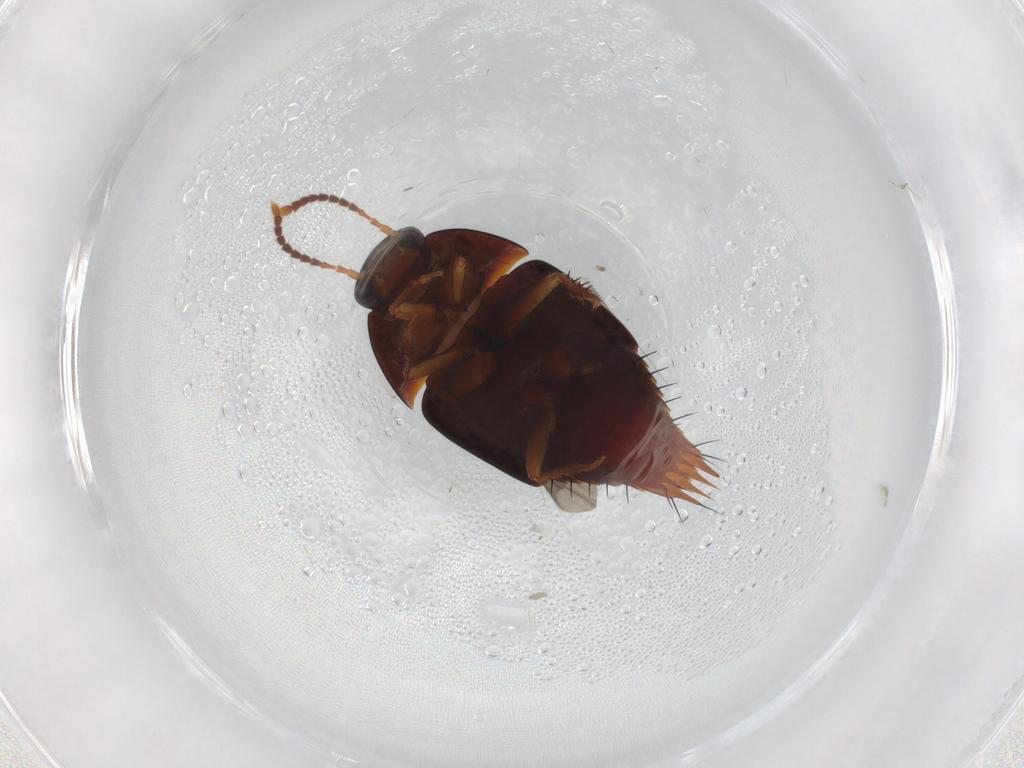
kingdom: Animalia
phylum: Arthropoda
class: Insecta
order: Coleoptera
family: Staphylinidae
